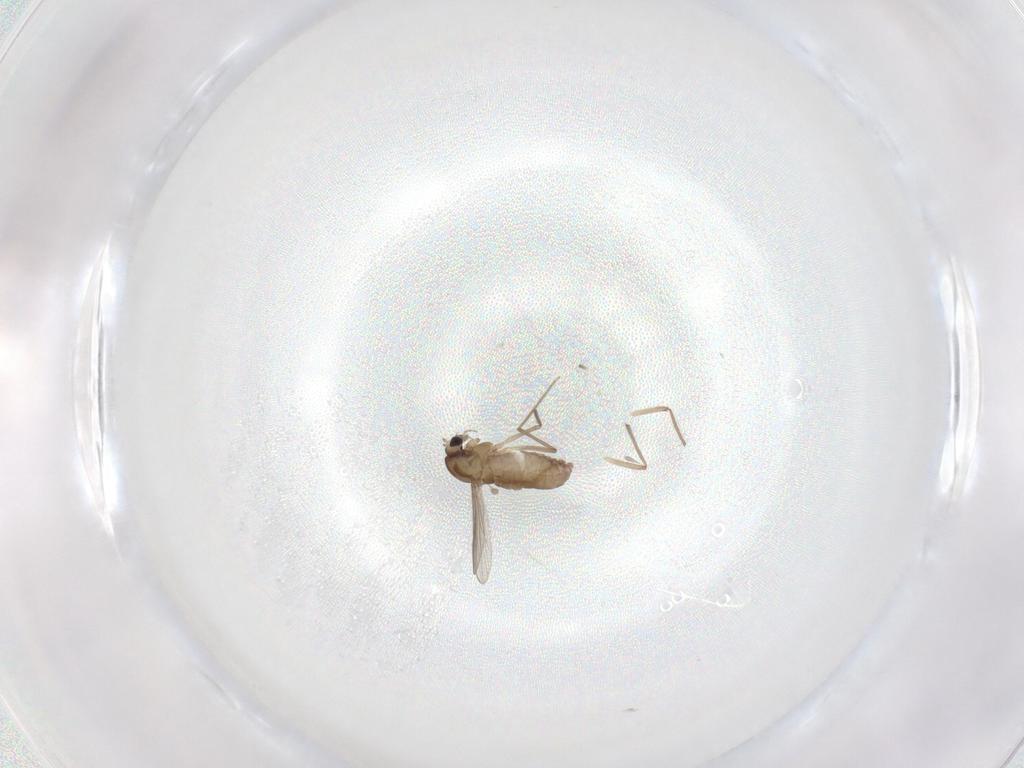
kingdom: Animalia
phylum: Arthropoda
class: Insecta
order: Diptera
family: Chironomidae
